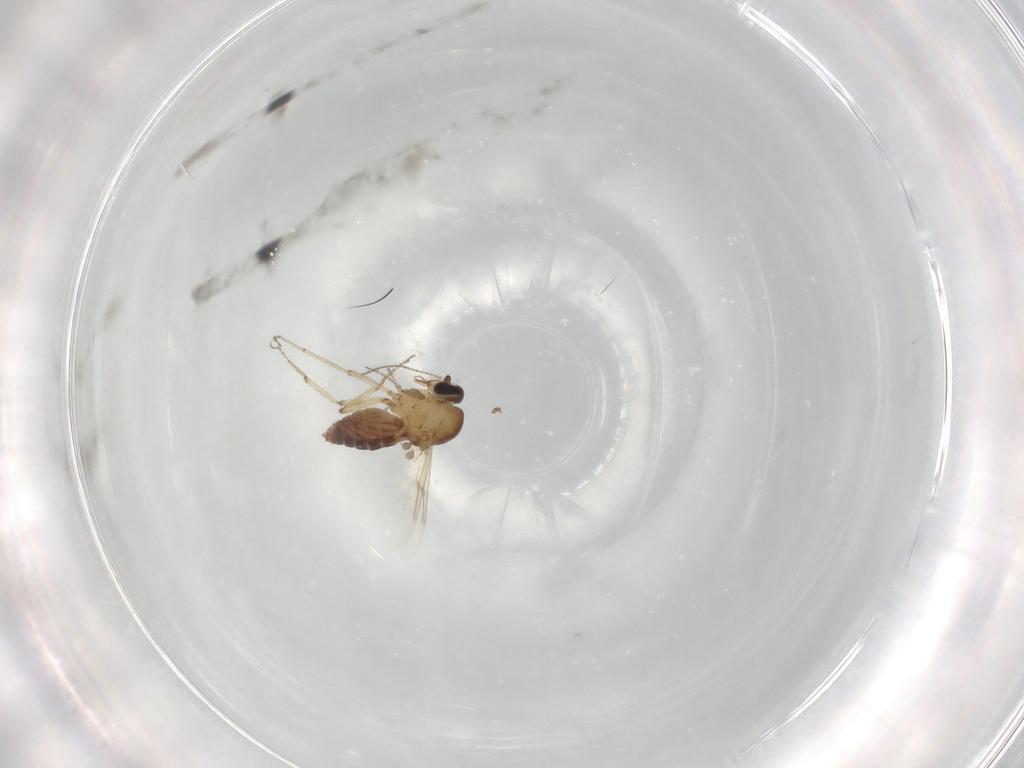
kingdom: Animalia
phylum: Arthropoda
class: Insecta
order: Diptera
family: Ceratopogonidae
